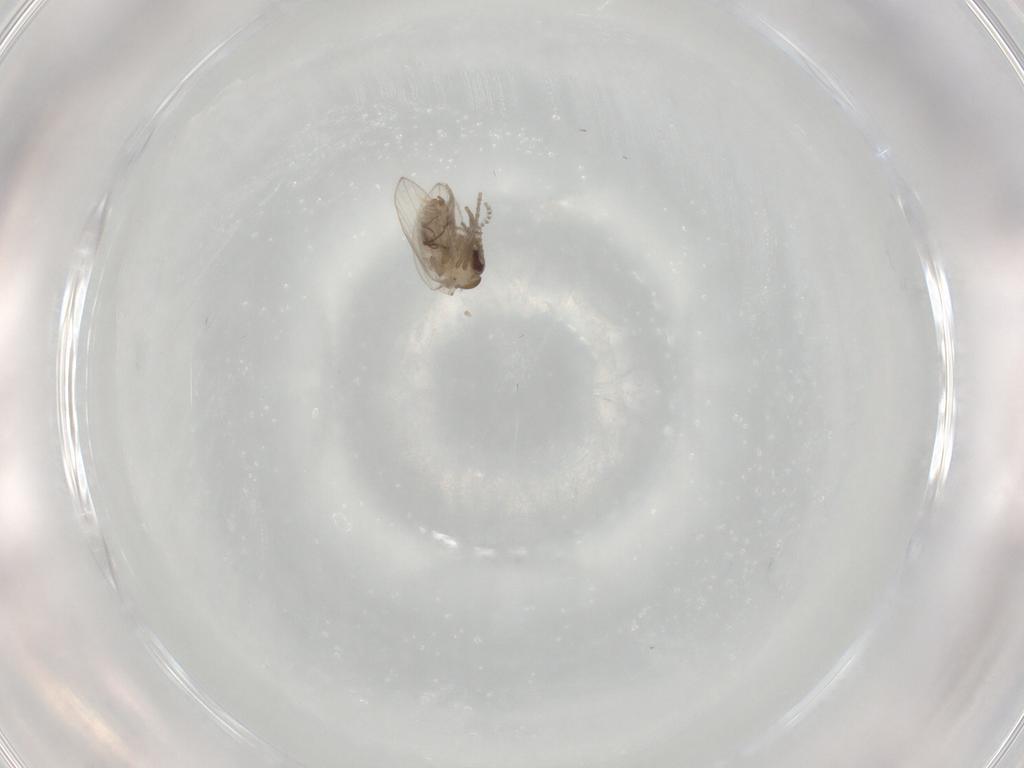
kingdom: Animalia
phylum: Arthropoda
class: Insecta
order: Diptera
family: Psychodidae
